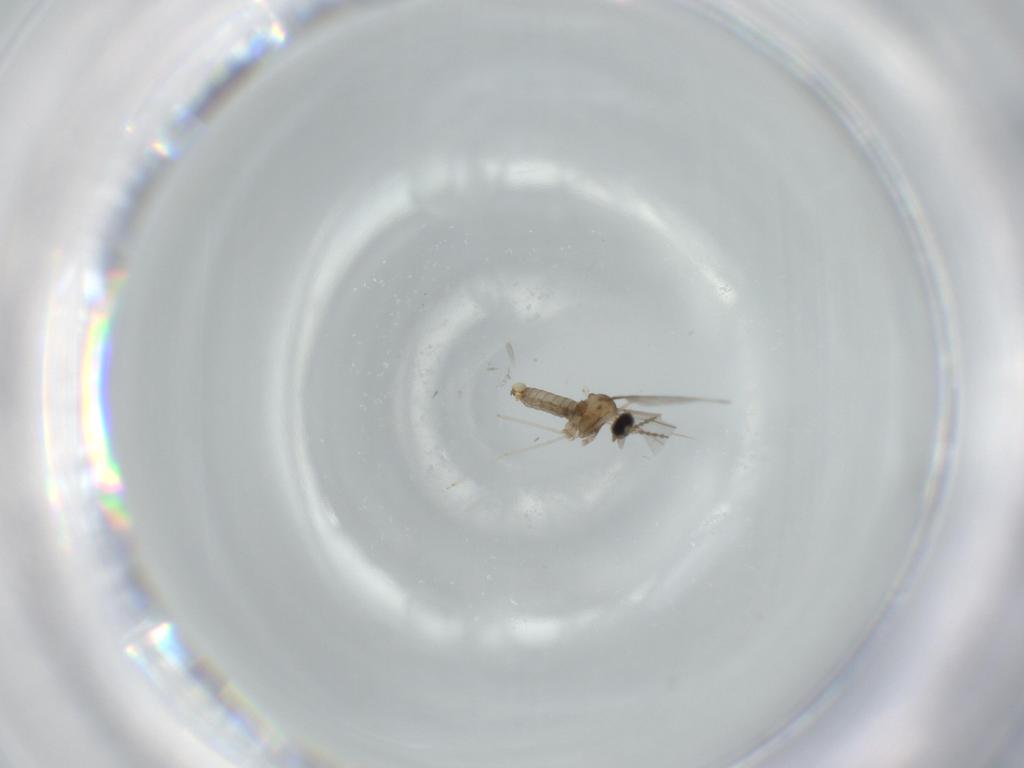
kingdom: Animalia
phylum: Arthropoda
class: Insecta
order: Diptera
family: Cecidomyiidae
